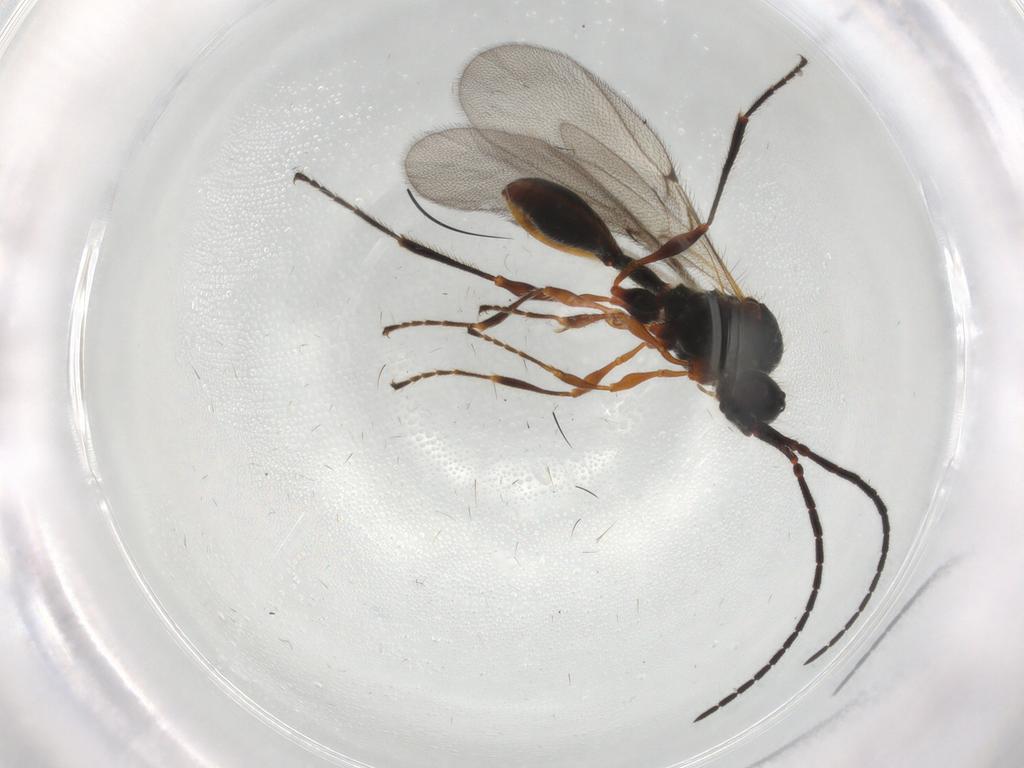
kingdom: Animalia
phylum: Arthropoda
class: Insecta
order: Hymenoptera
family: Diapriidae
